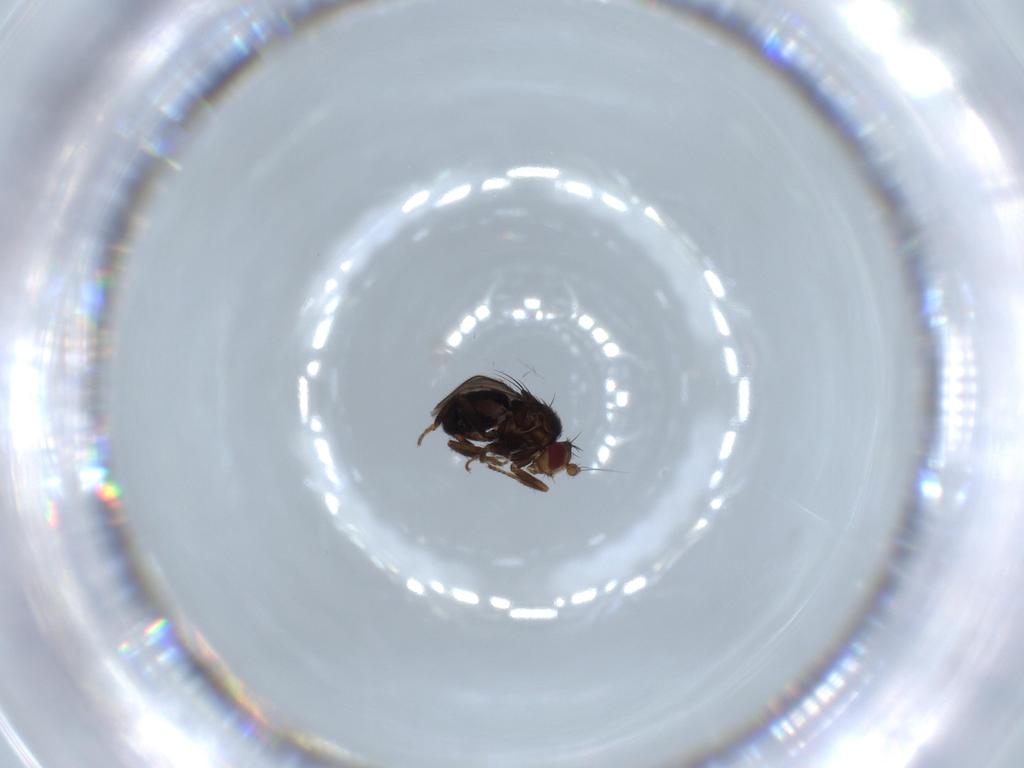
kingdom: Animalia
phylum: Arthropoda
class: Insecta
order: Diptera
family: Sphaeroceridae
